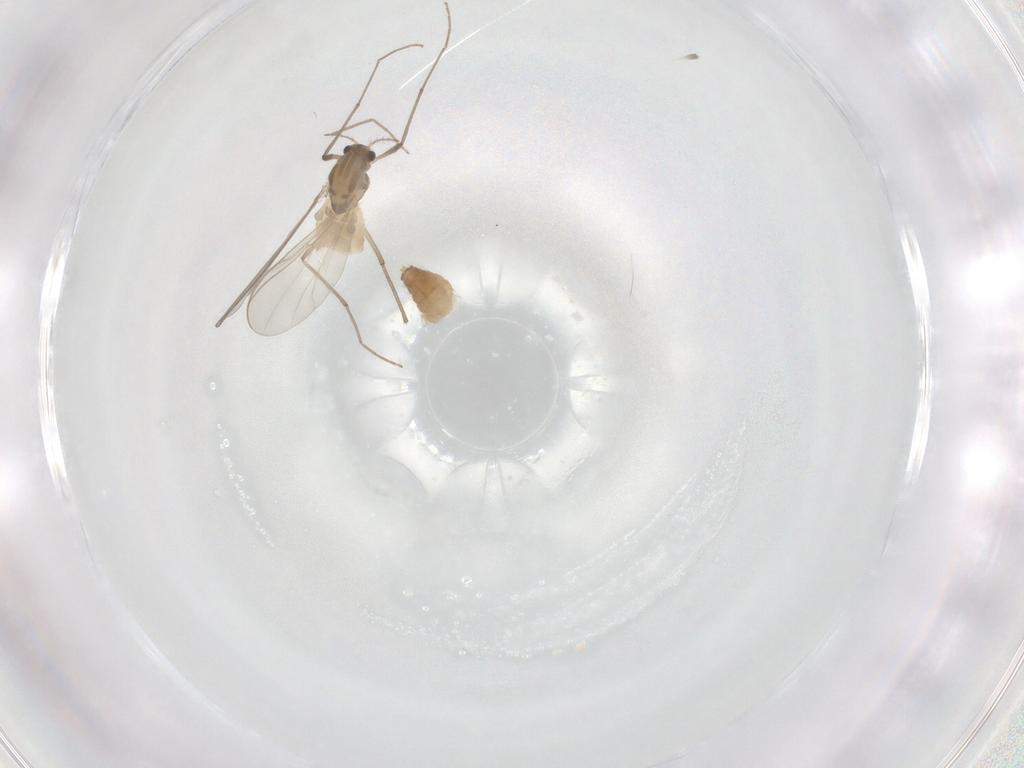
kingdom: Animalia
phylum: Arthropoda
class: Insecta
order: Diptera
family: Chironomidae
